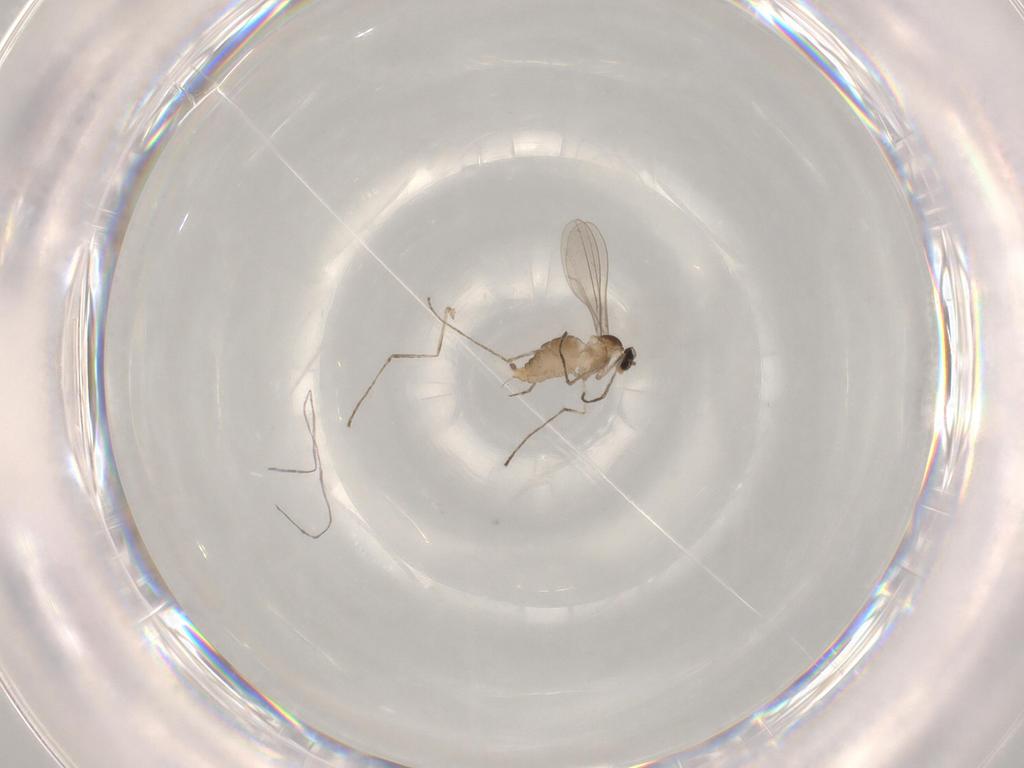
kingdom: Animalia
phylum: Arthropoda
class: Insecta
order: Diptera
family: Cecidomyiidae
